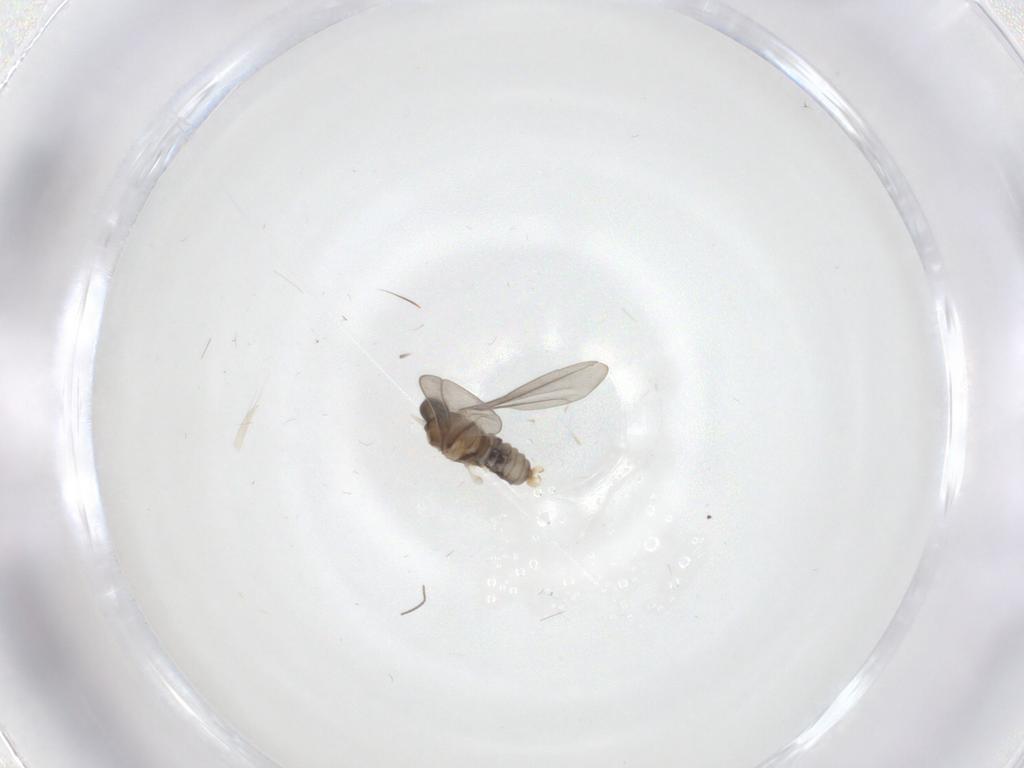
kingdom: Animalia
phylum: Arthropoda
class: Insecta
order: Diptera
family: Cecidomyiidae
